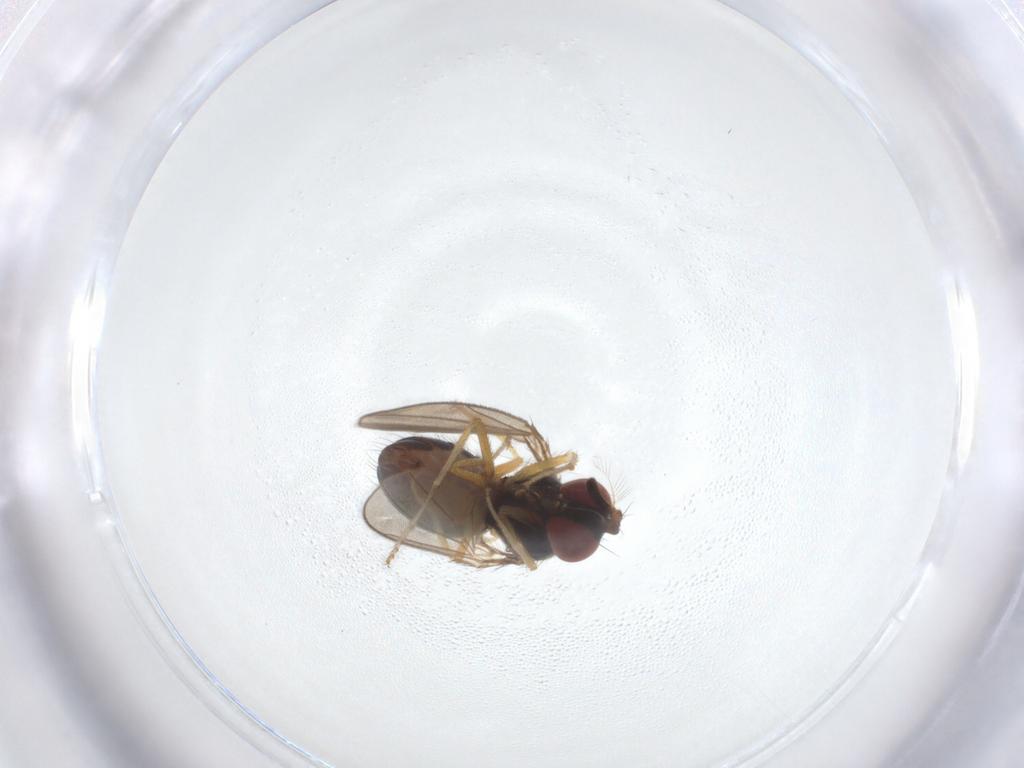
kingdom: Animalia
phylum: Arthropoda
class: Insecta
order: Diptera
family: Ephydridae
